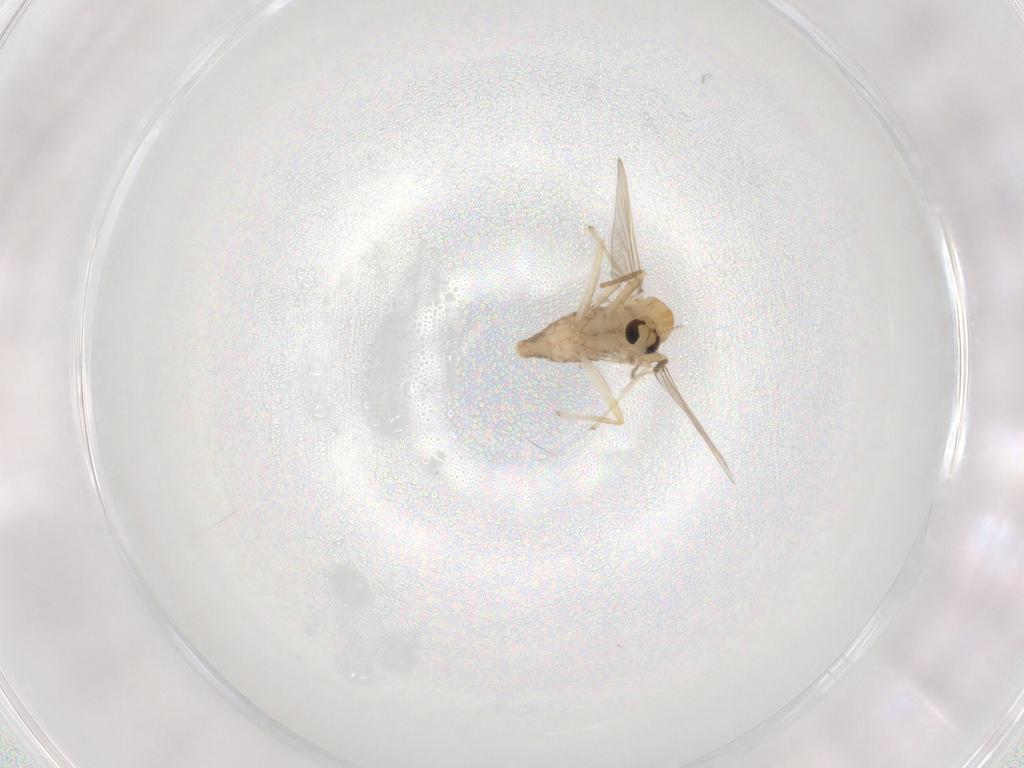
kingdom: Animalia
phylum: Arthropoda
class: Insecta
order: Diptera
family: Chironomidae
